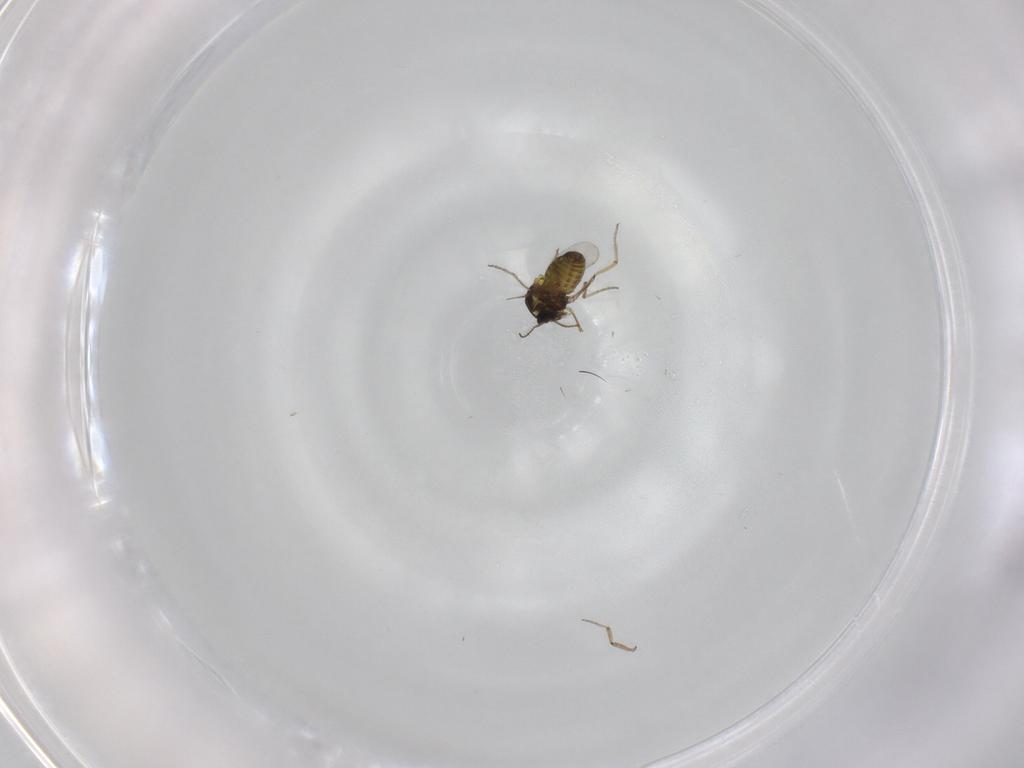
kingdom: Animalia
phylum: Arthropoda
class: Insecta
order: Diptera
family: Ceratopogonidae
